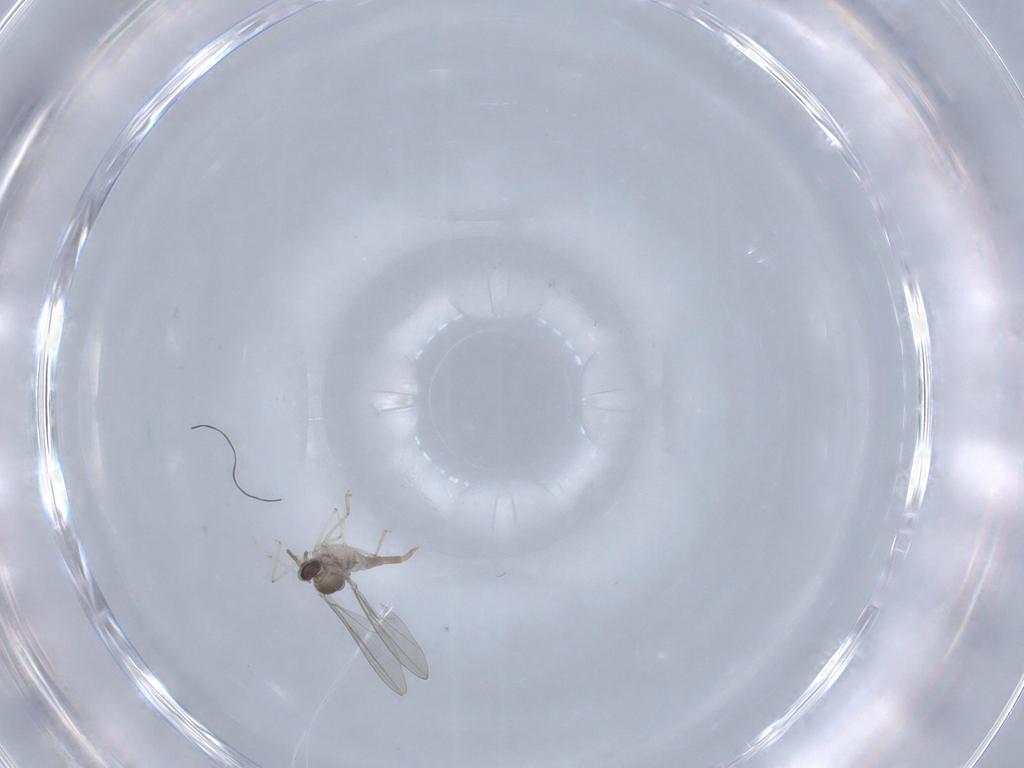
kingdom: Animalia
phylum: Arthropoda
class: Insecta
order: Diptera
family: Cecidomyiidae
